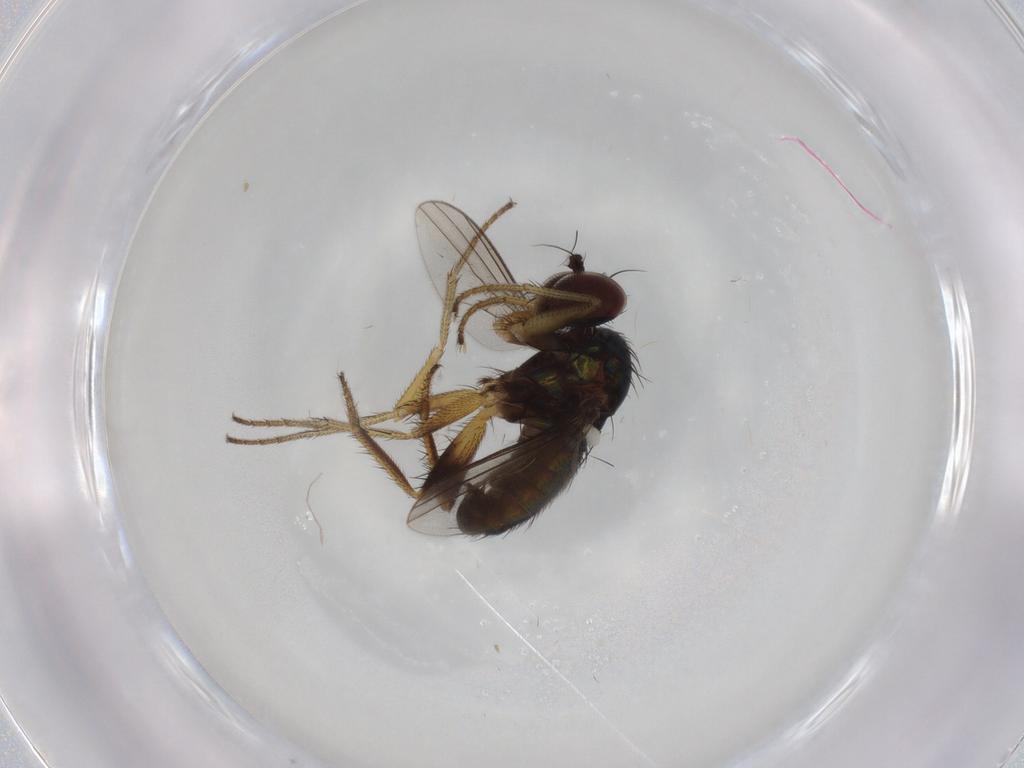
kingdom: Animalia
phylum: Arthropoda
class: Insecta
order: Diptera
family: Dolichopodidae
